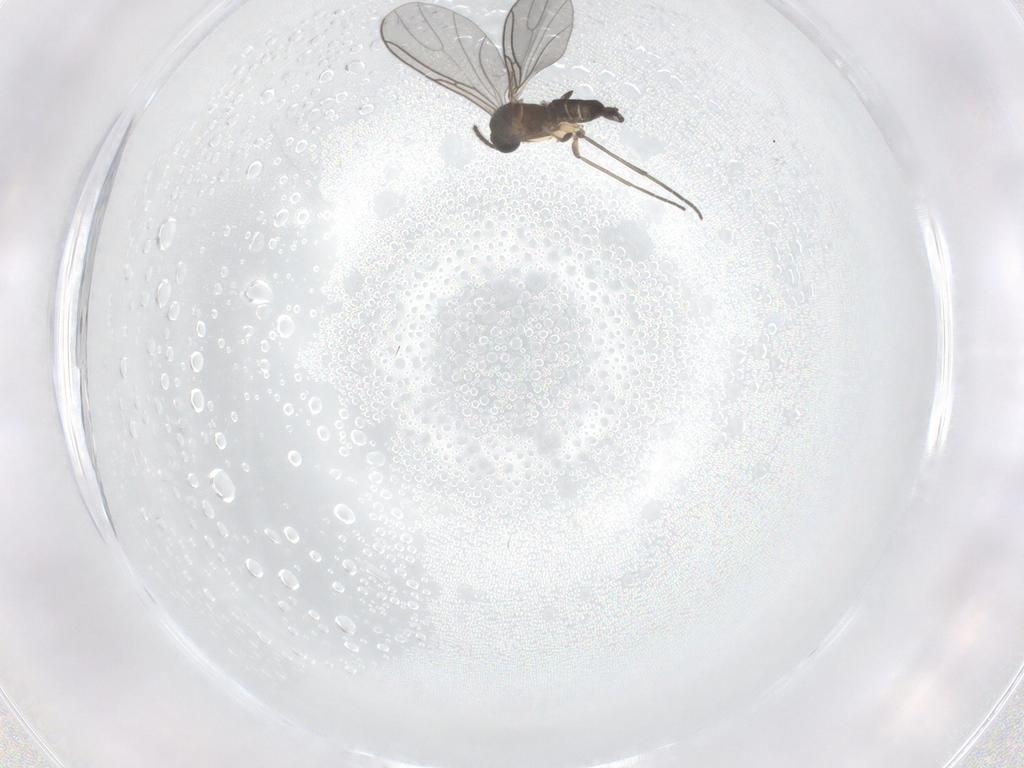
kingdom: Animalia
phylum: Arthropoda
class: Insecta
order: Diptera
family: Sciaridae
